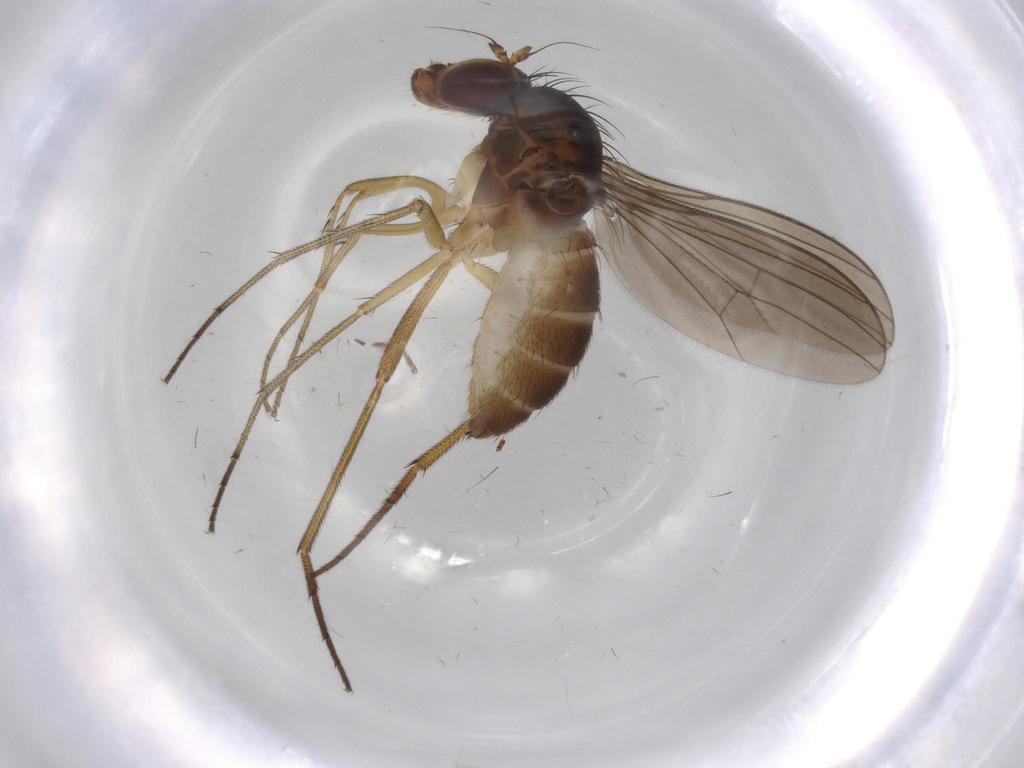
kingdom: Animalia
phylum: Arthropoda
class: Insecta
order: Diptera
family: Dolichopodidae
